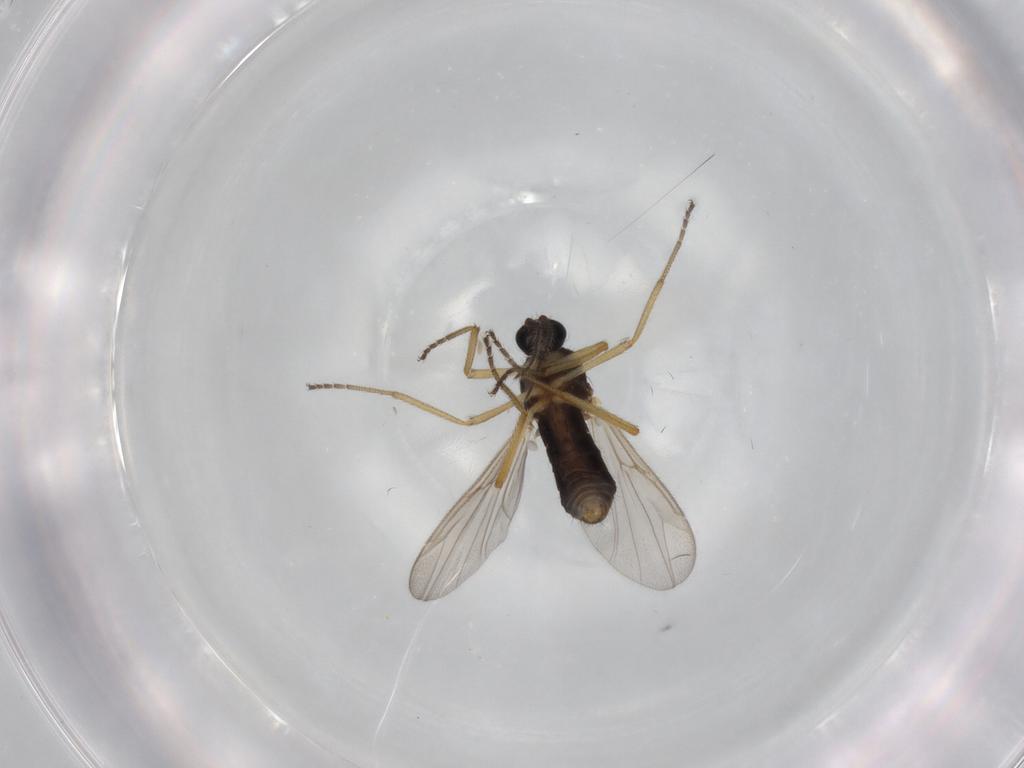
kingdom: Animalia
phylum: Arthropoda
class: Insecta
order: Diptera
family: Ceratopogonidae
